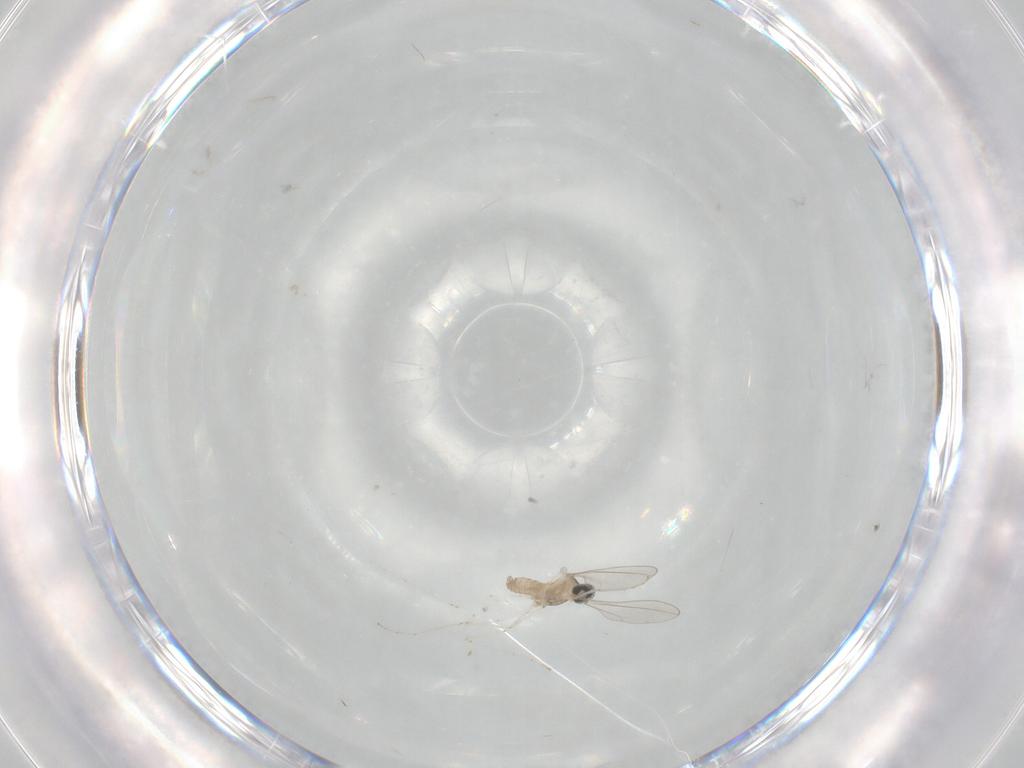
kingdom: Animalia
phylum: Arthropoda
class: Insecta
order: Diptera
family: Cecidomyiidae
